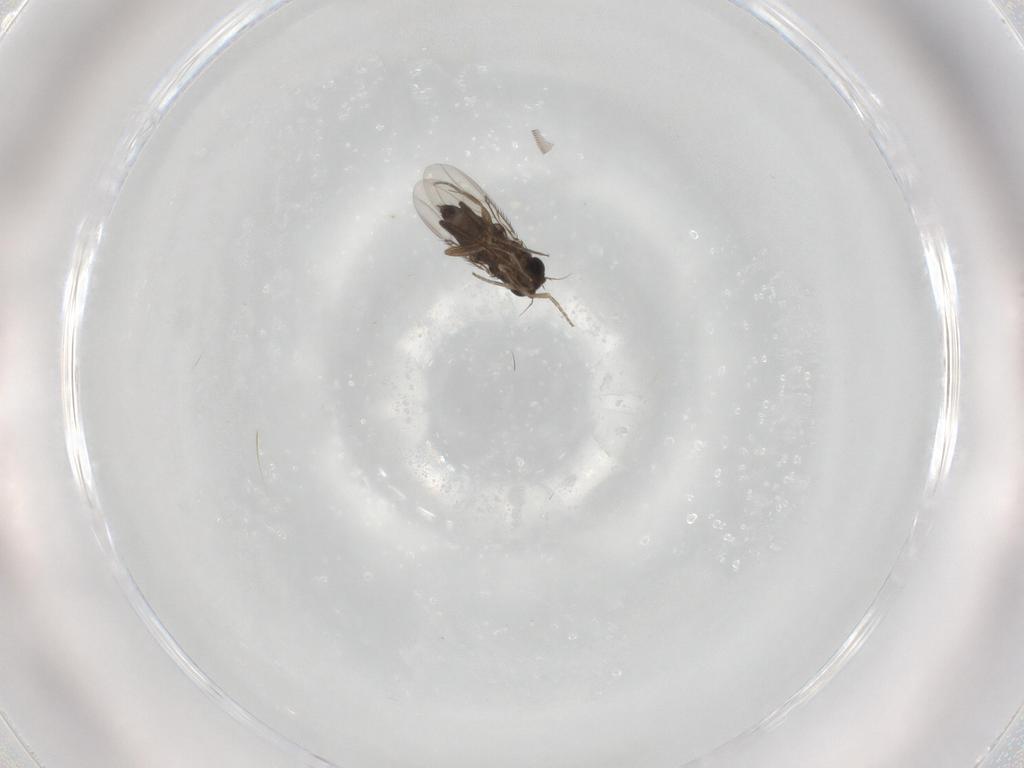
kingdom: Animalia
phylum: Arthropoda
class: Insecta
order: Diptera
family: Phoridae
